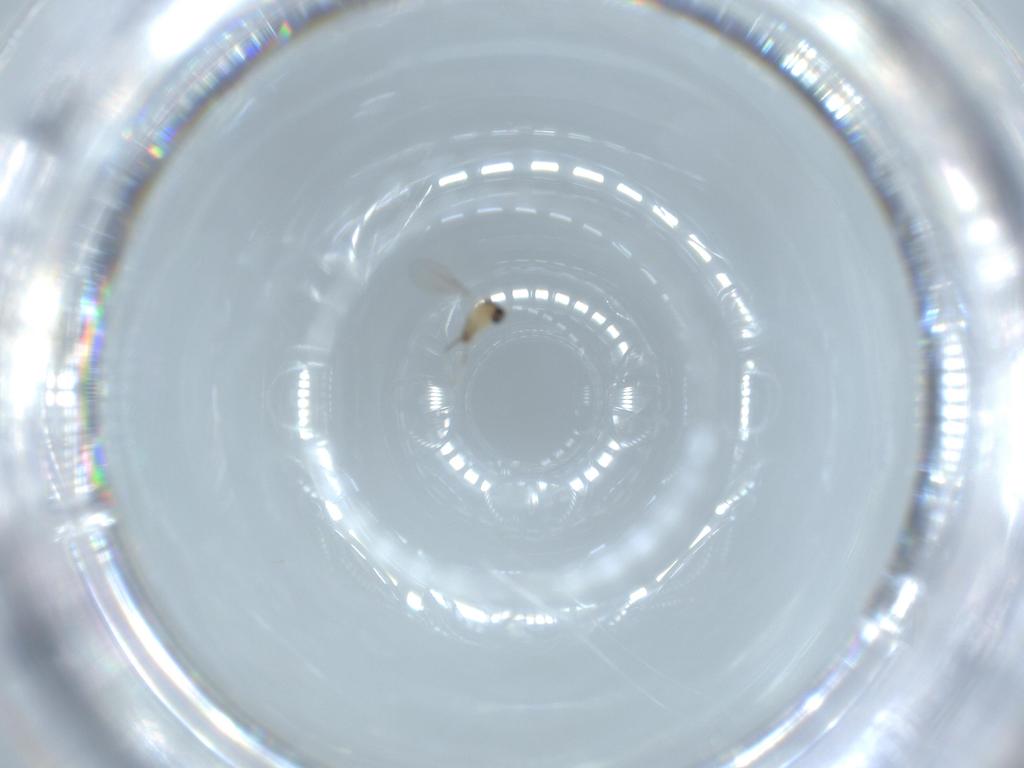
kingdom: Animalia
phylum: Arthropoda
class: Insecta
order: Diptera
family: Cecidomyiidae
